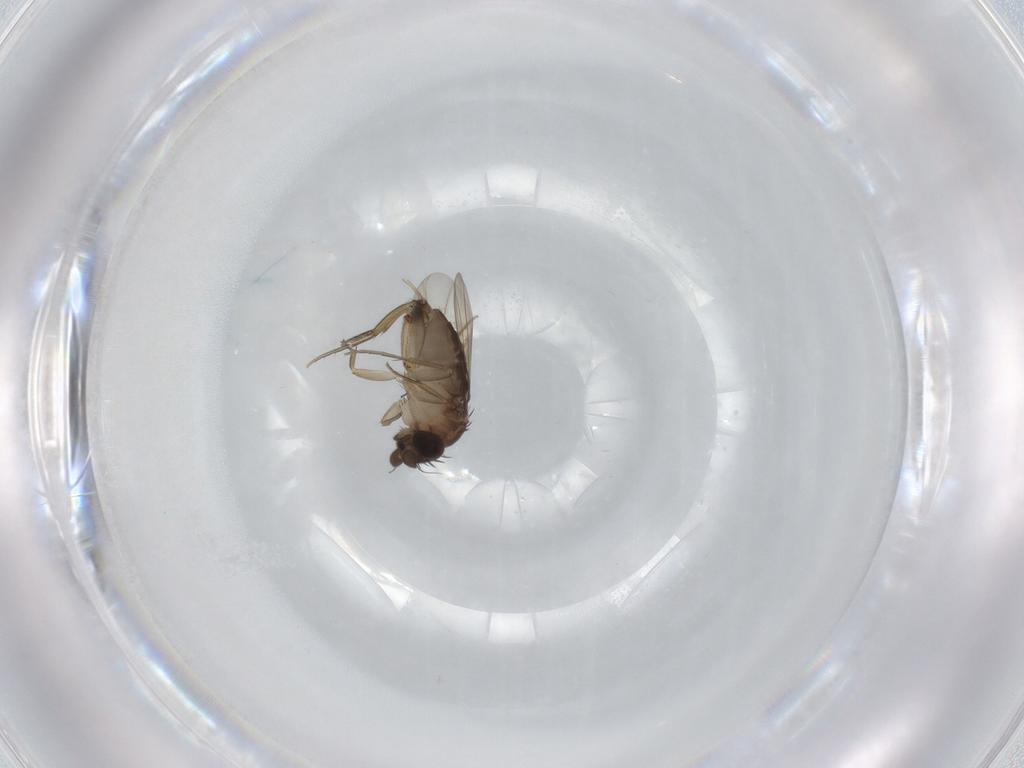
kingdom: Animalia
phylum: Arthropoda
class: Insecta
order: Diptera
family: Phoridae
